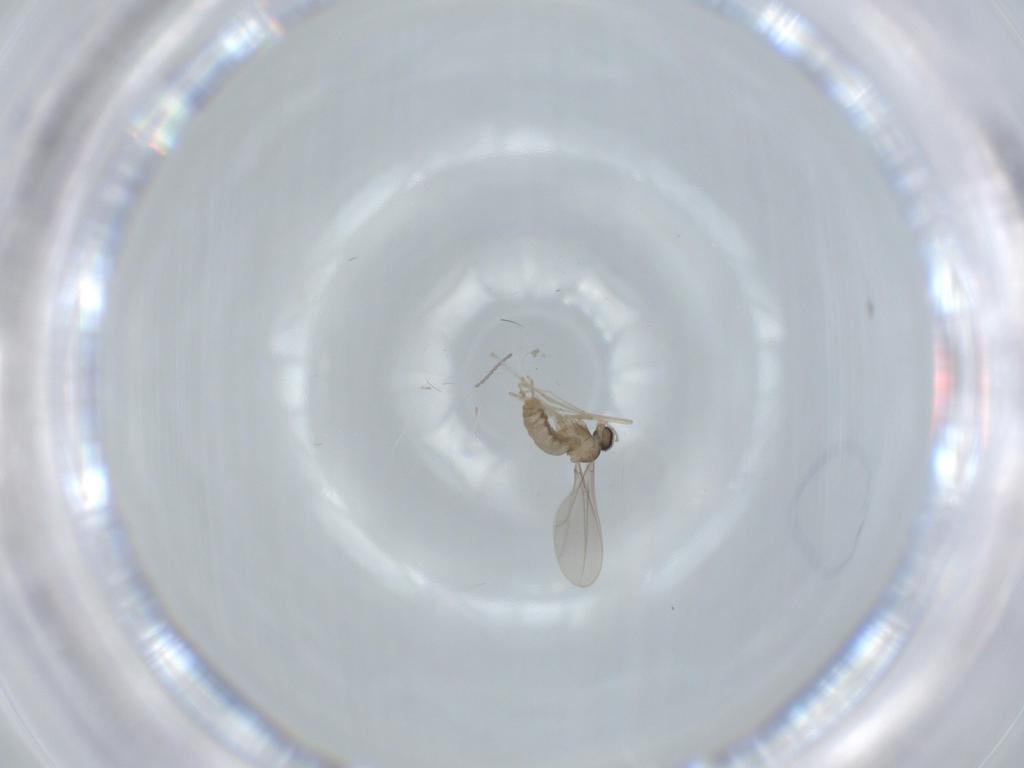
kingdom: Animalia
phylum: Arthropoda
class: Insecta
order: Diptera
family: Cecidomyiidae
